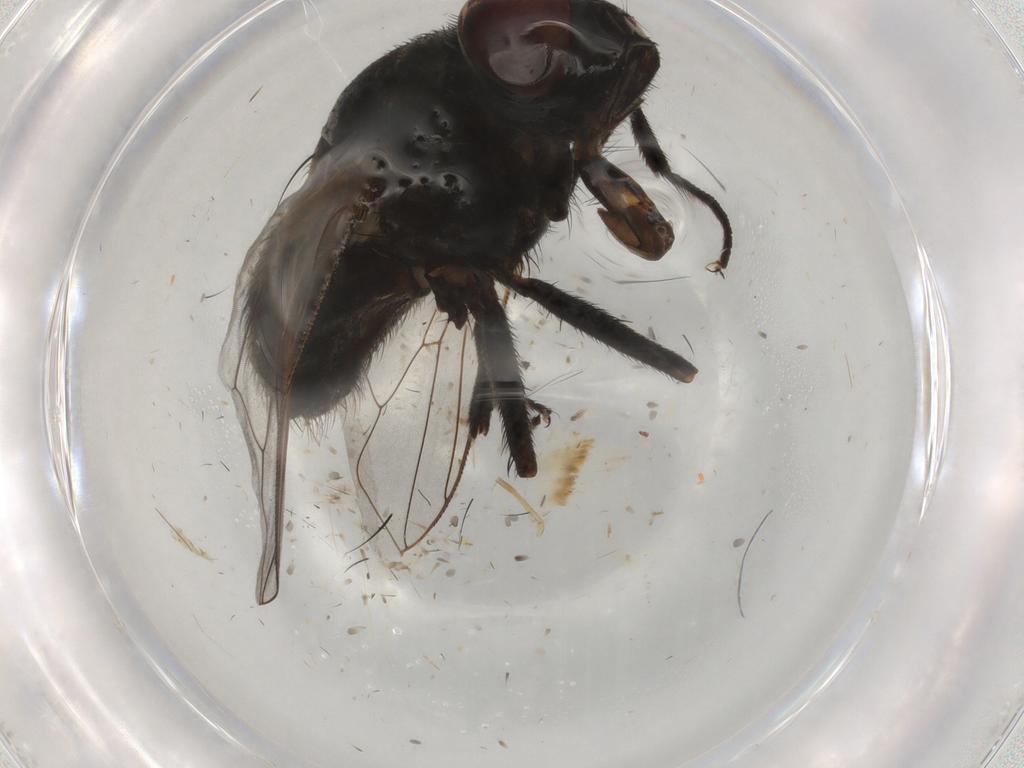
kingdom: Animalia
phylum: Arthropoda
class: Insecta
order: Diptera
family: Muscidae
